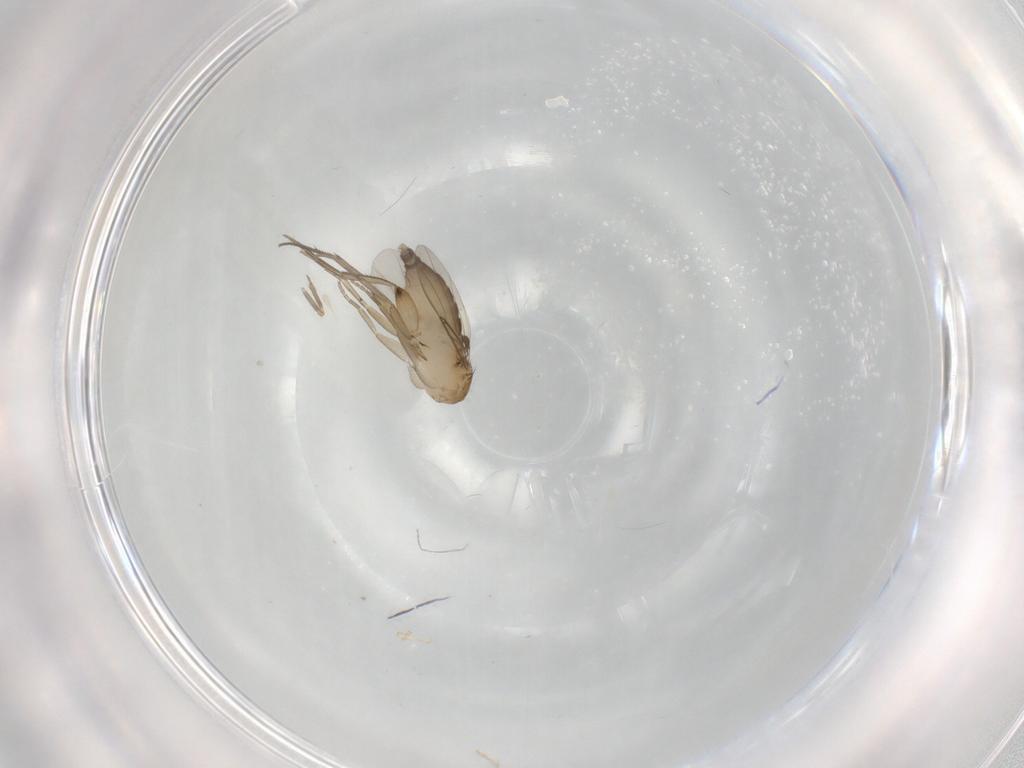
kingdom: Animalia
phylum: Arthropoda
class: Insecta
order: Diptera
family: Phoridae
